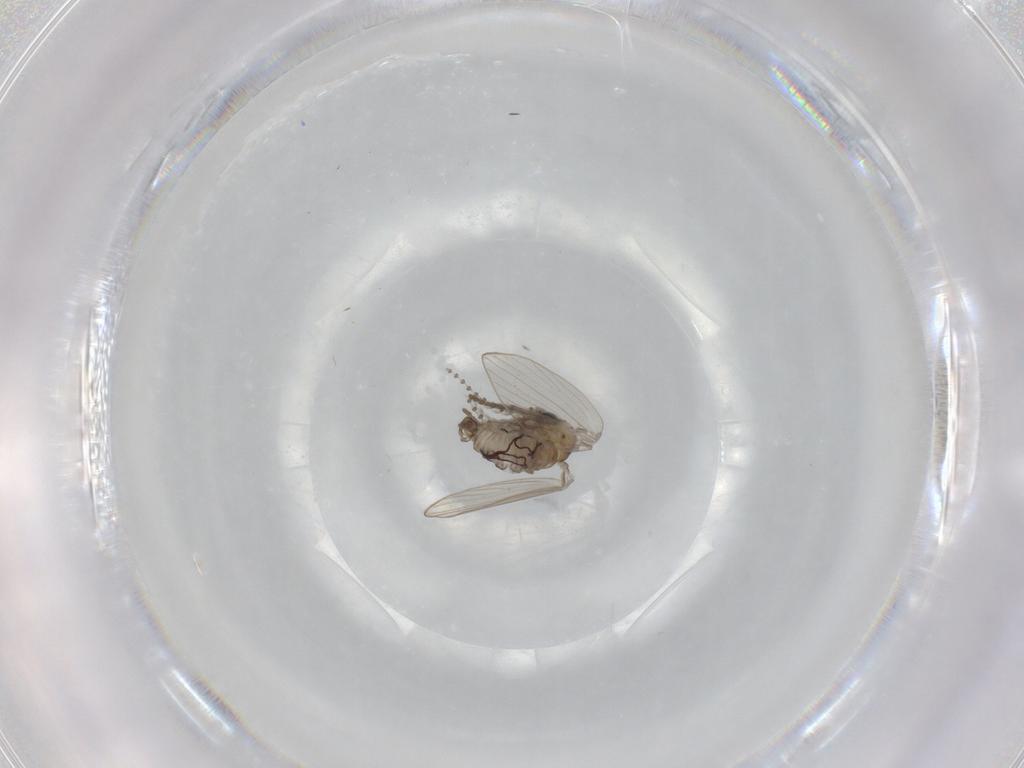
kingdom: Animalia
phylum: Arthropoda
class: Insecta
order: Diptera
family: Psychodidae
